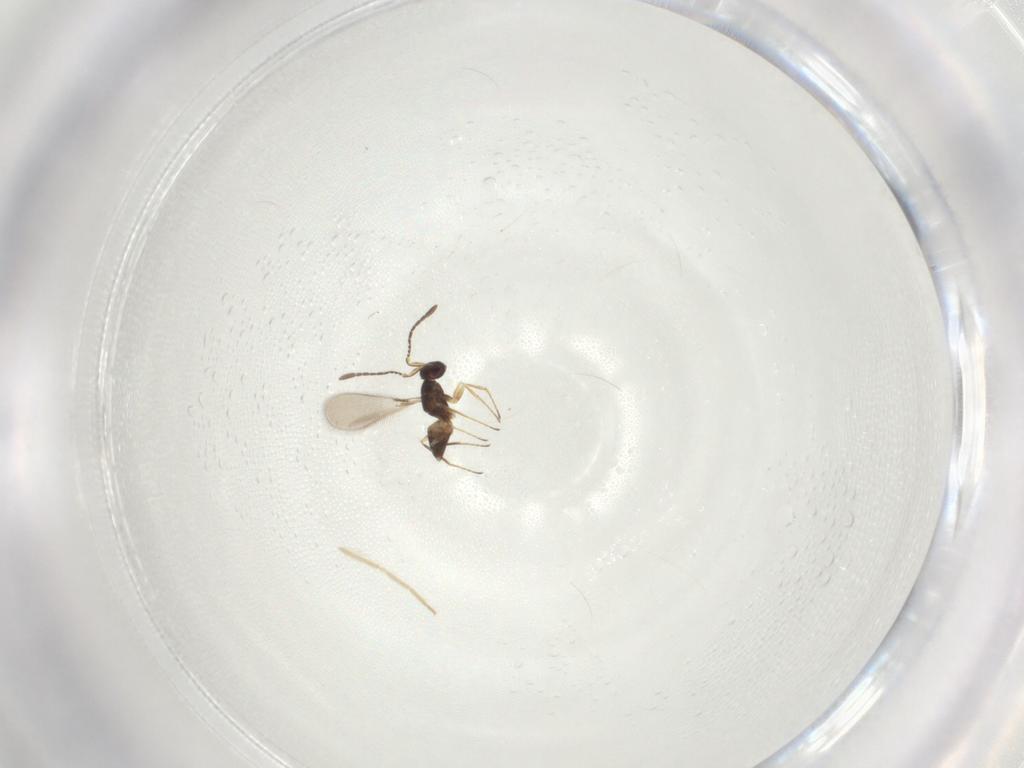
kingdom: Animalia
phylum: Arthropoda
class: Insecta
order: Hymenoptera
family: Mymaridae
